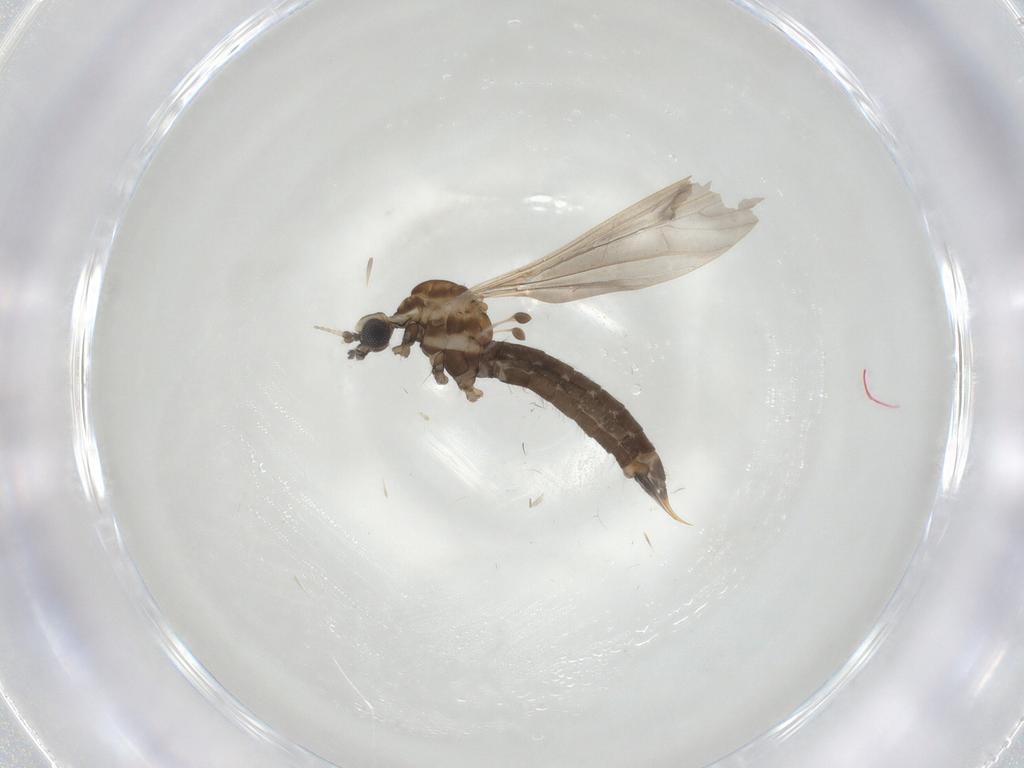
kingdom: Animalia
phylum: Arthropoda
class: Insecta
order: Diptera
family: Limoniidae
